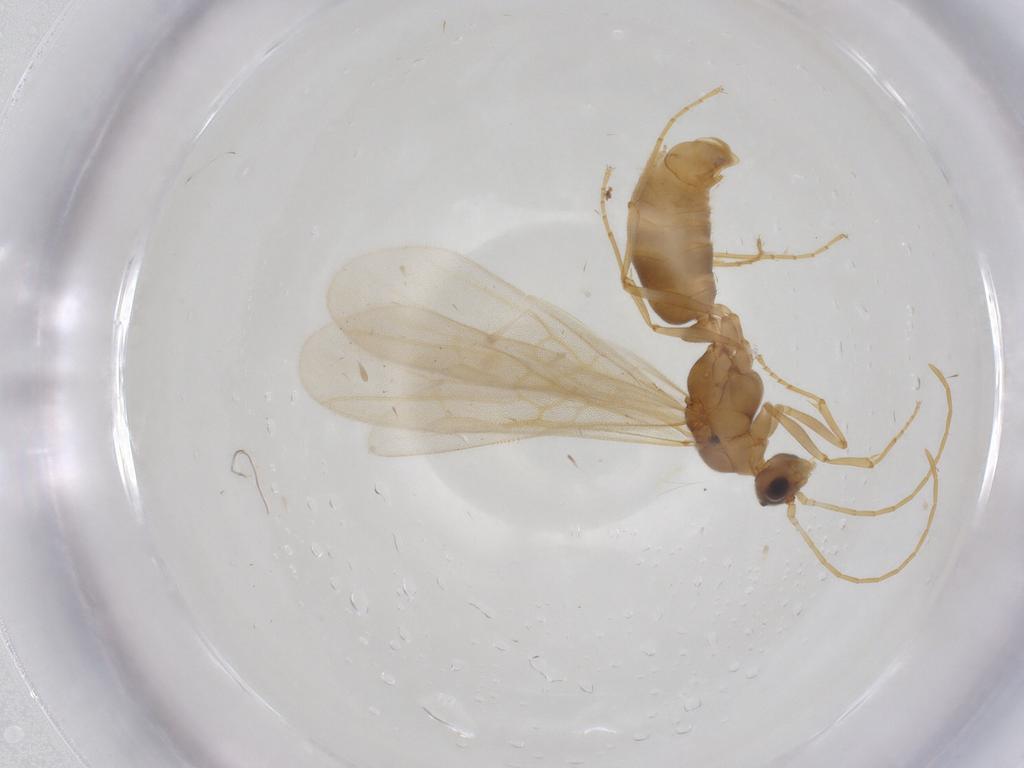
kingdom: Animalia
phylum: Arthropoda
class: Insecta
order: Hymenoptera
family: Formicidae
